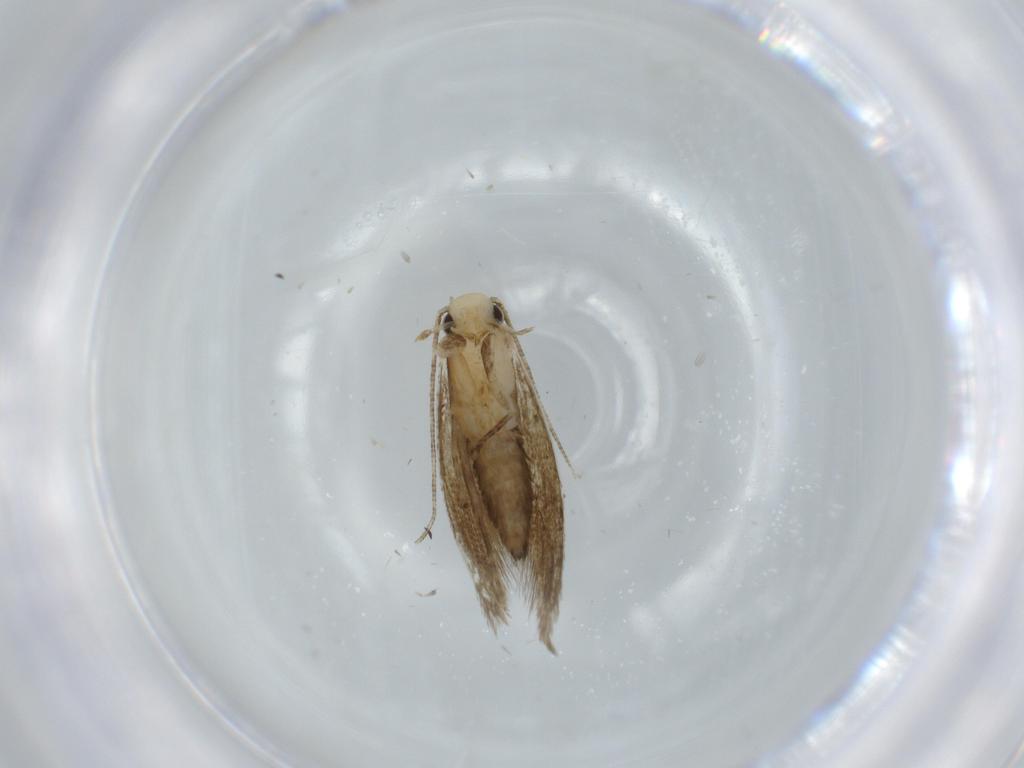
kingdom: Animalia
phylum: Arthropoda
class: Insecta
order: Lepidoptera
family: Tineidae
